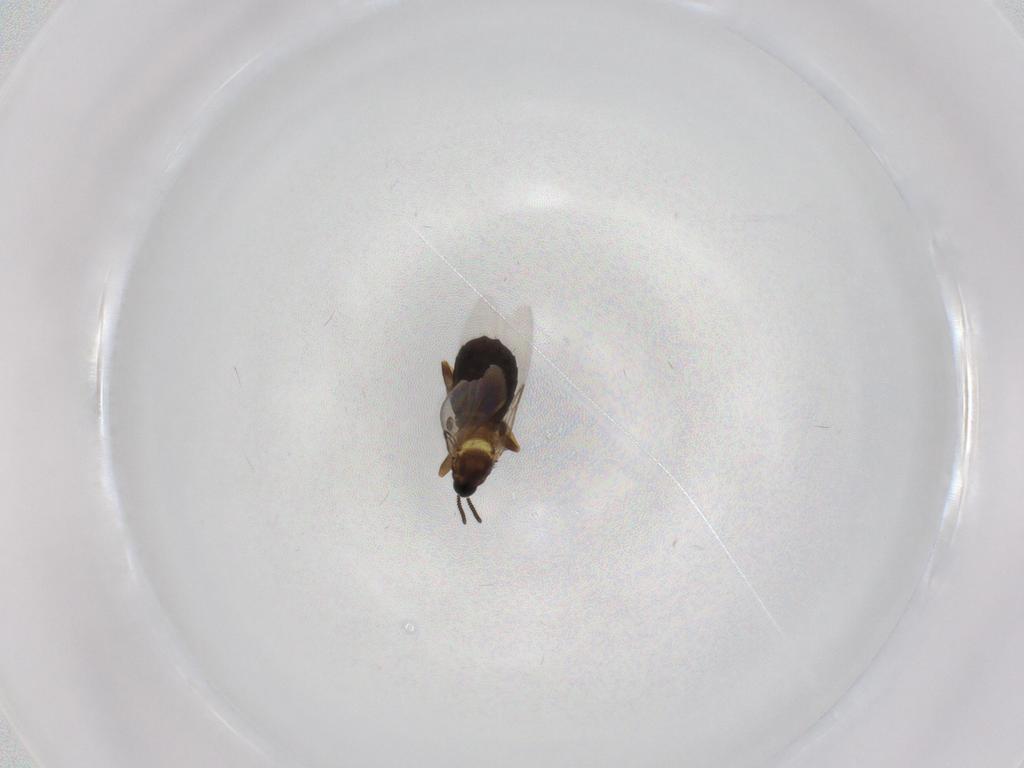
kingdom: Animalia
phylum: Arthropoda
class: Insecta
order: Diptera
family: Scatopsidae
